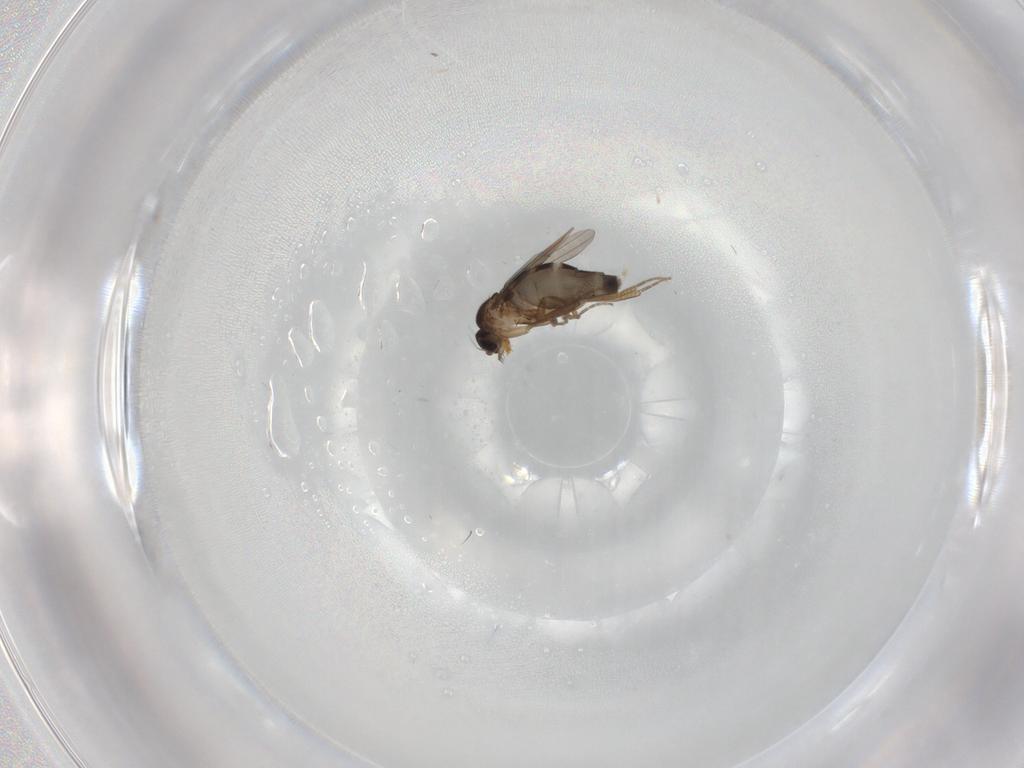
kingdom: Animalia
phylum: Arthropoda
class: Insecta
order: Diptera
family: Phoridae
